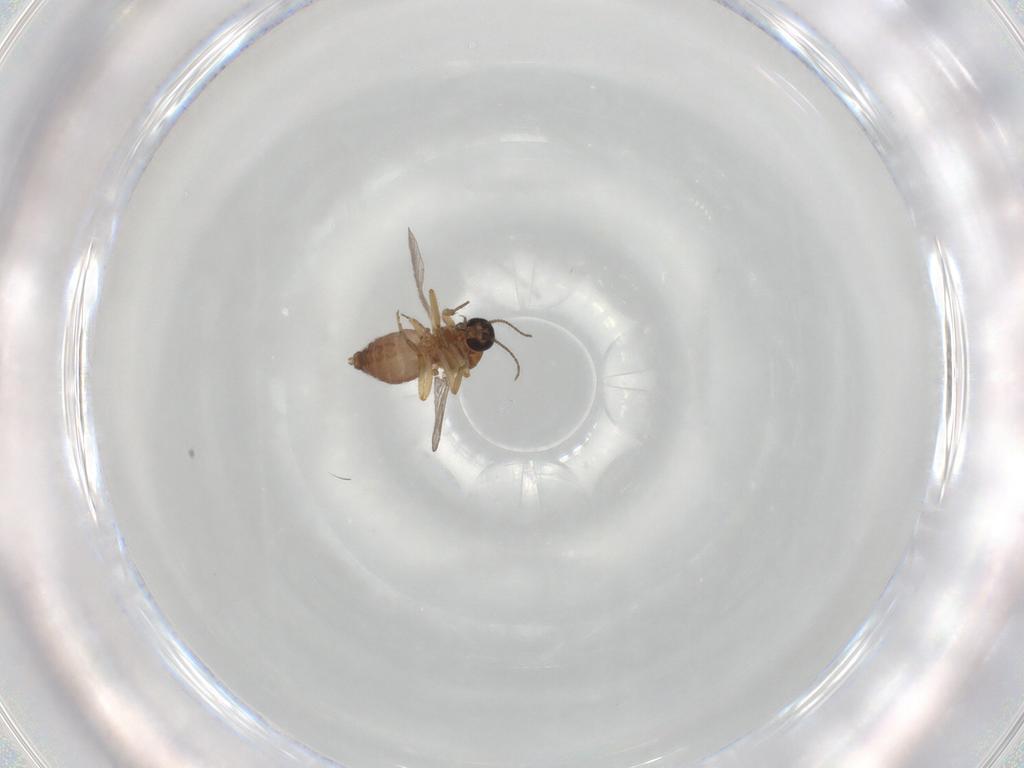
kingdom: Animalia
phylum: Arthropoda
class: Insecta
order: Diptera
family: Ceratopogonidae
